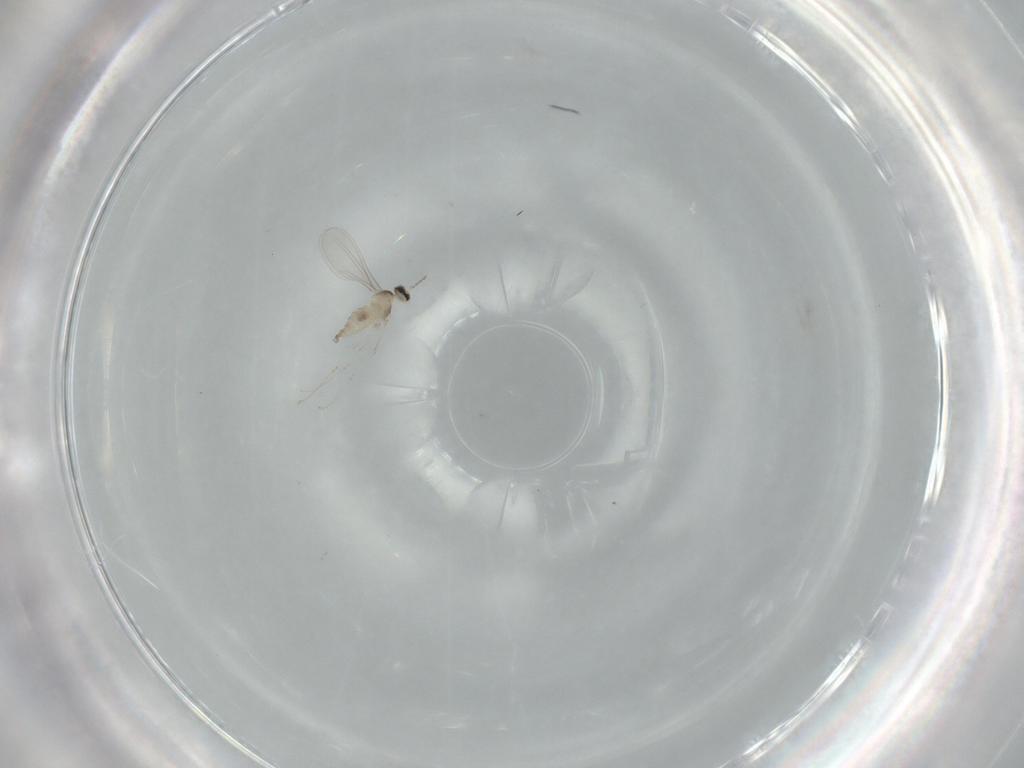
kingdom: Animalia
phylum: Arthropoda
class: Insecta
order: Diptera
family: Cecidomyiidae
